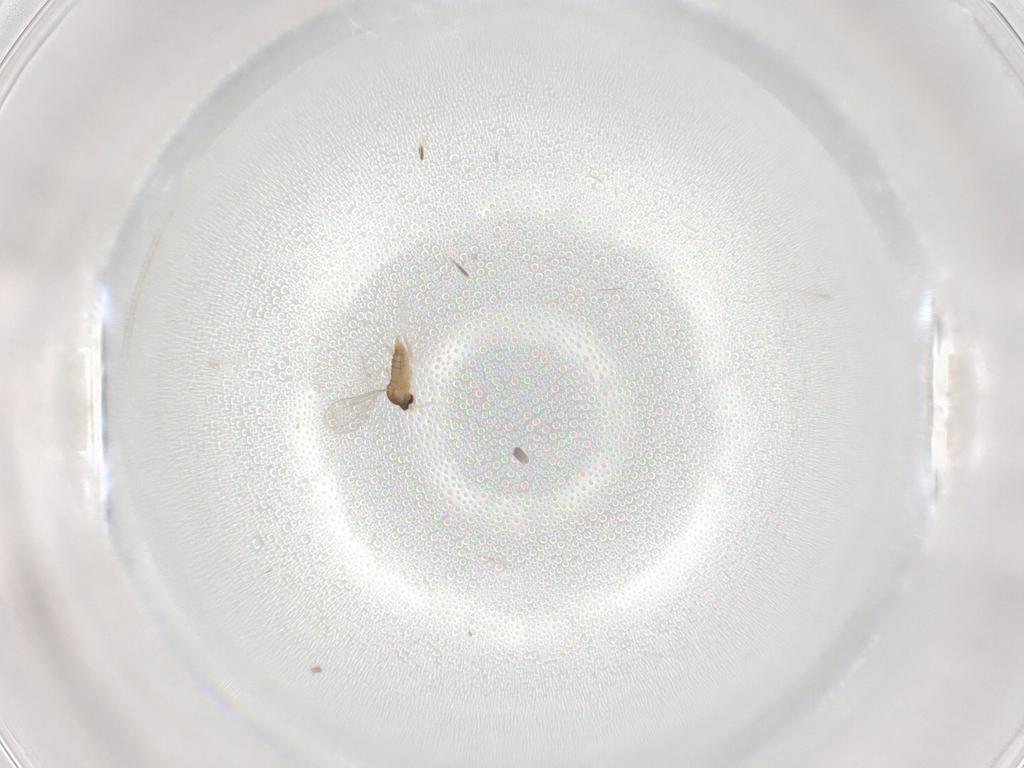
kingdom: Animalia
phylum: Arthropoda
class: Insecta
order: Diptera
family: Cecidomyiidae
